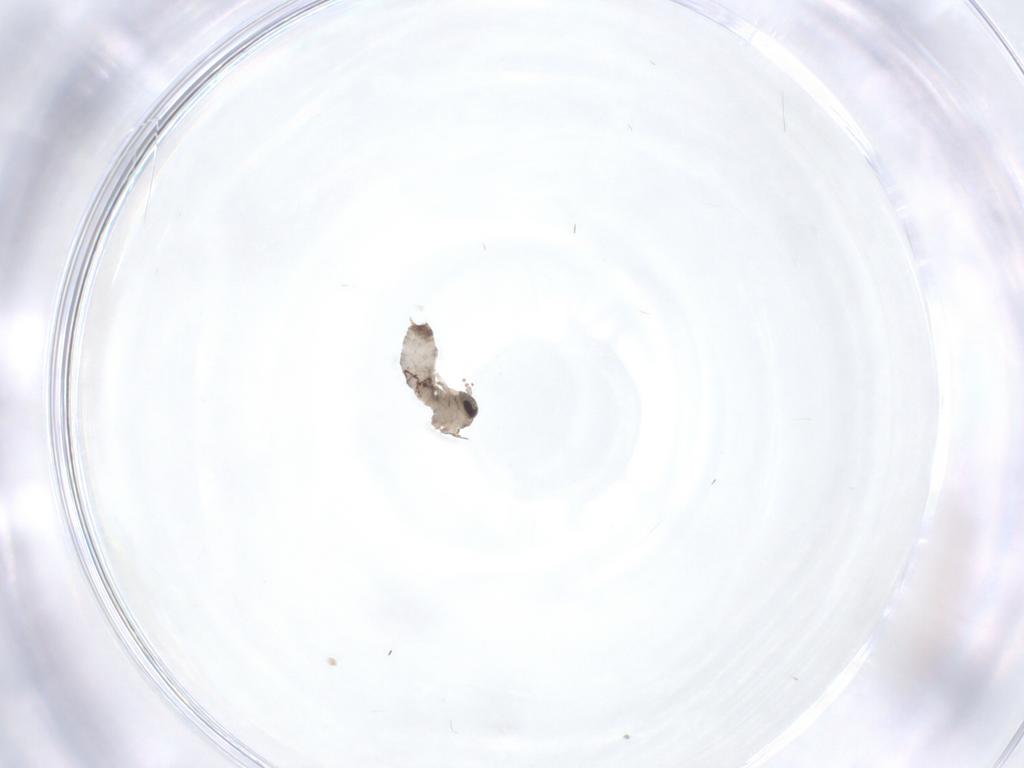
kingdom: Animalia
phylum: Arthropoda
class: Insecta
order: Diptera
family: Psychodidae
